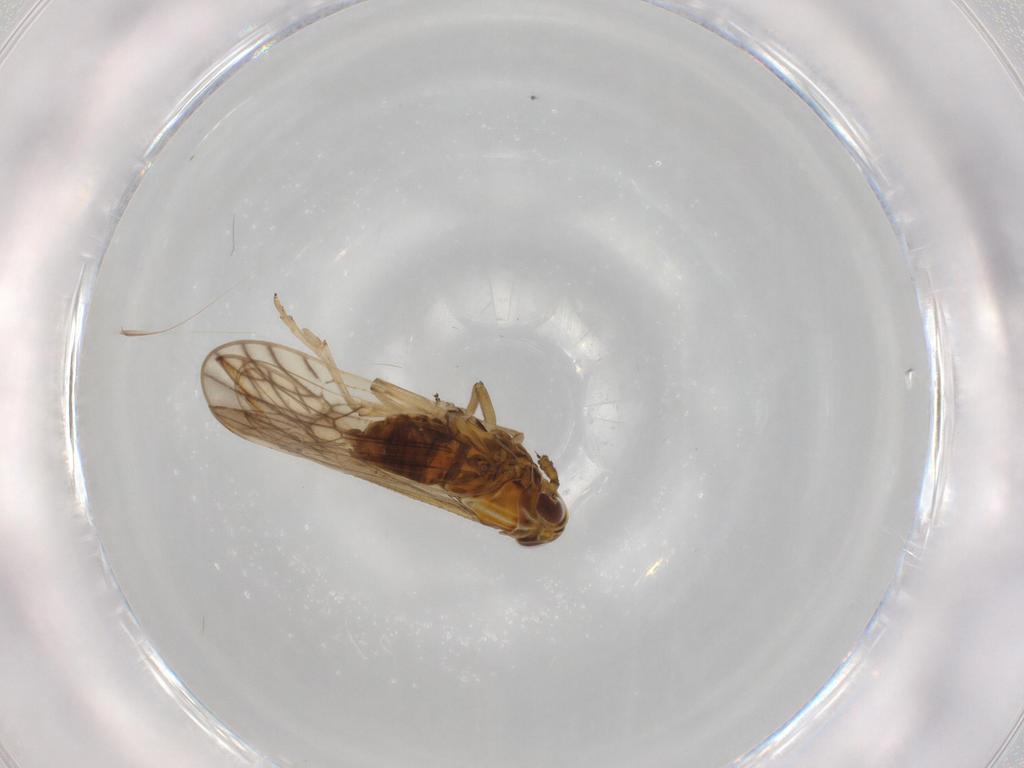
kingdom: Animalia
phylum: Arthropoda
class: Insecta
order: Hemiptera
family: Delphacidae
